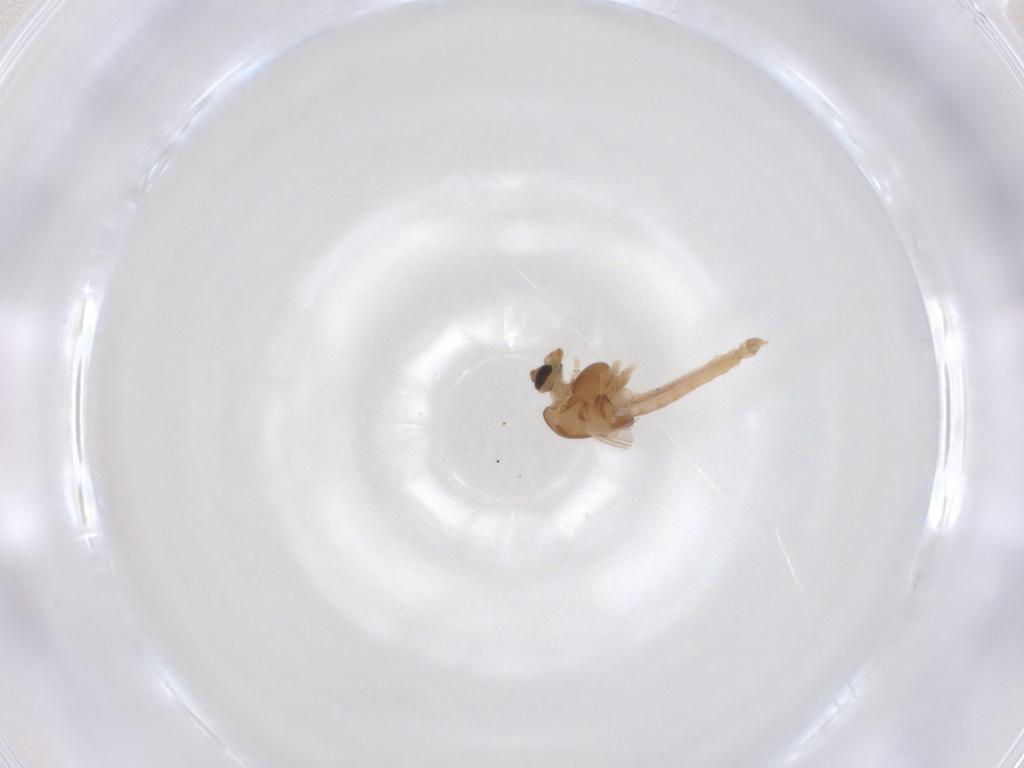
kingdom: Animalia
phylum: Arthropoda
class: Insecta
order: Diptera
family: Chironomidae
